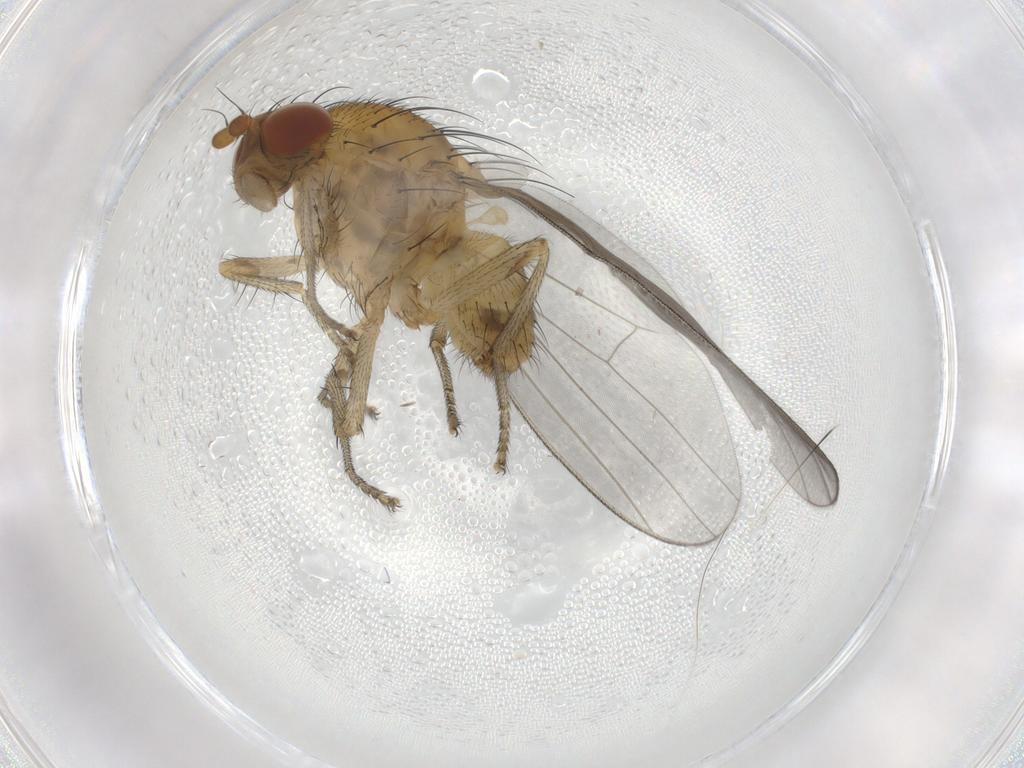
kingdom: Animalia
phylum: Arthropoda
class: Insecta
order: Diptera
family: Lauxaniidae
